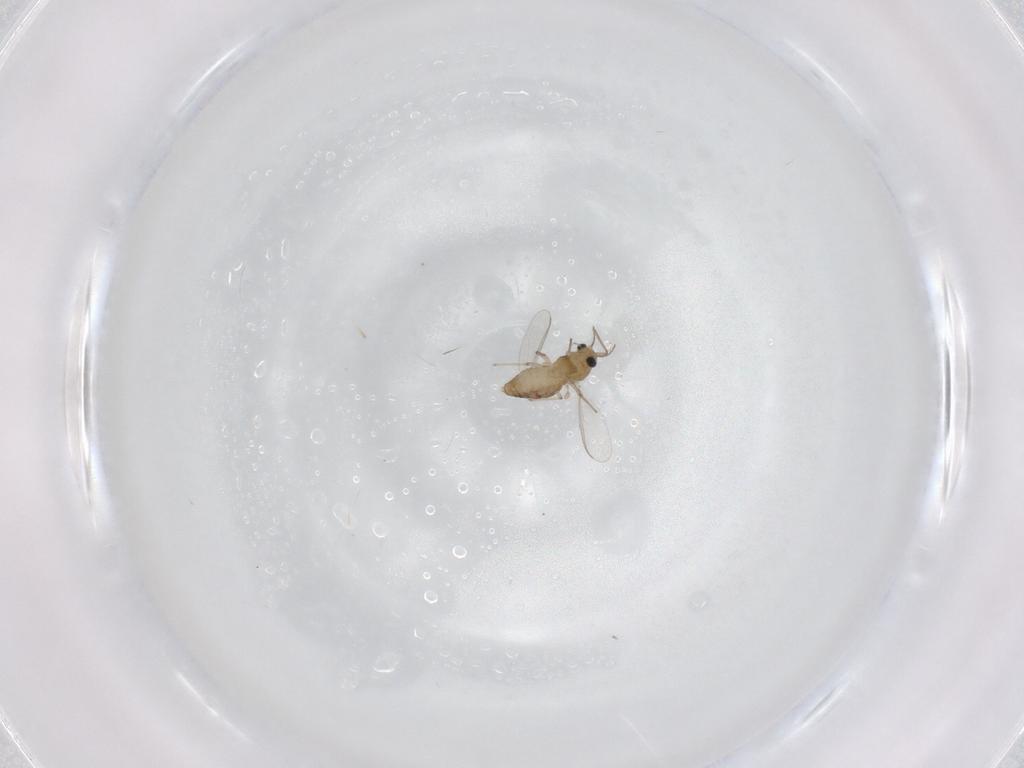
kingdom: Animalia
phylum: Arthropoda
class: Insecta
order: Diptera
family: Chironomidae
